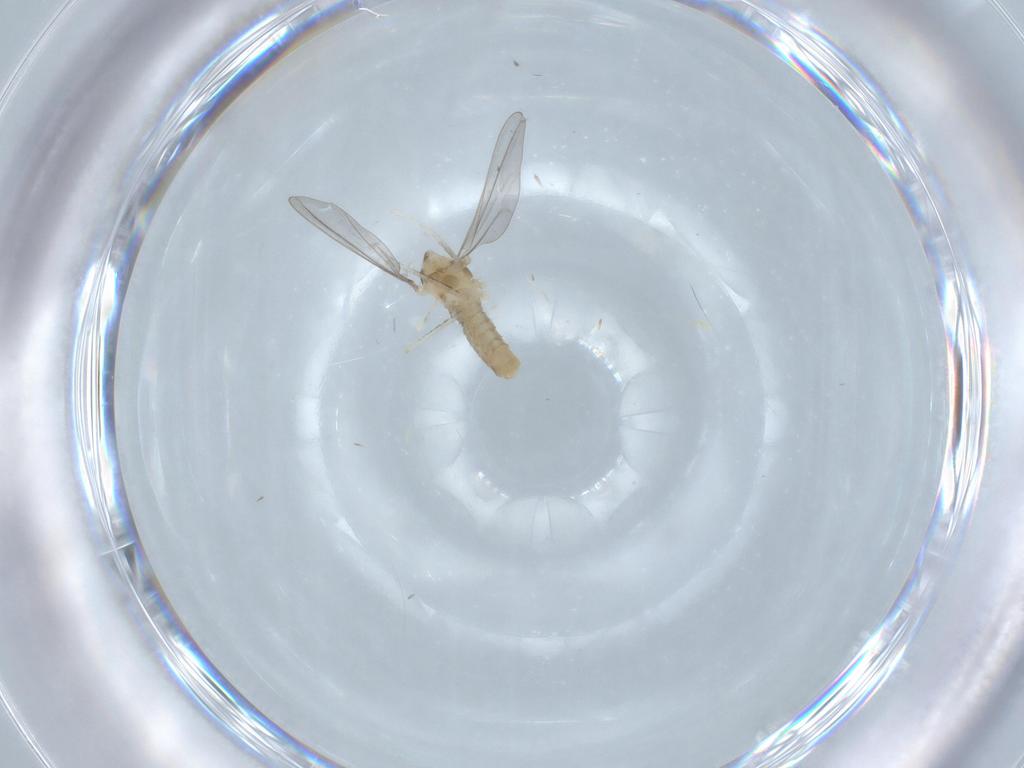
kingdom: Animalia
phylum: Arthropoda
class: Insecta
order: Diptera
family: Cecidomyiidae
